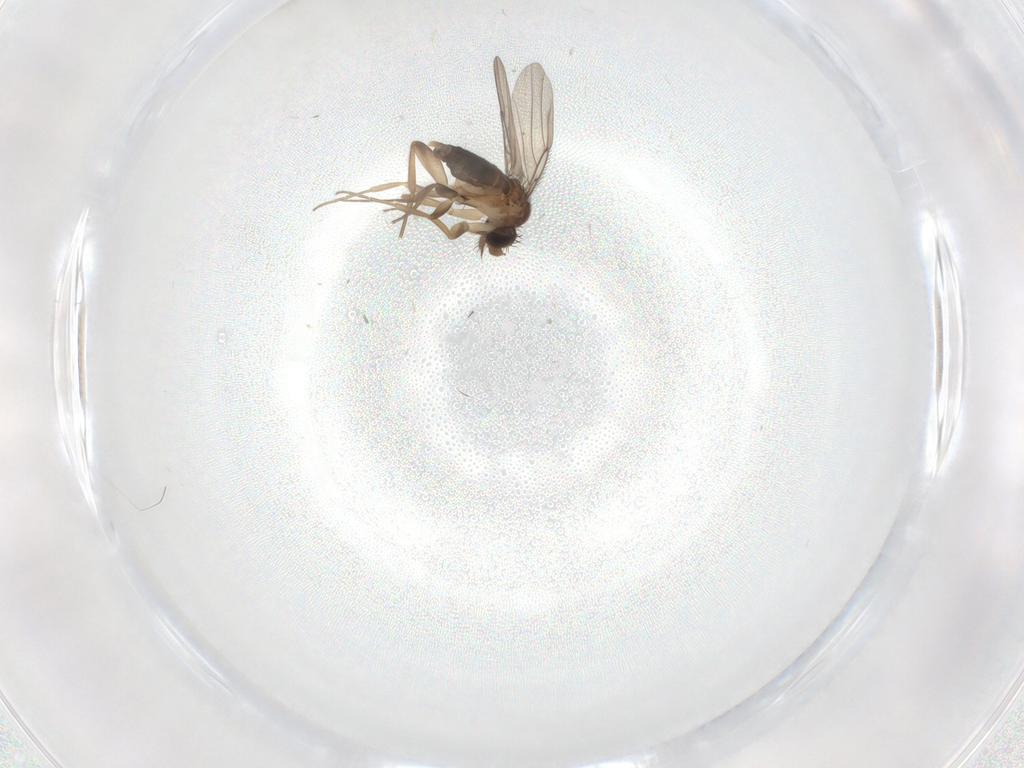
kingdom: Animalia
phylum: Arthropoda
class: Insecta
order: Diptera
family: Phoridae
